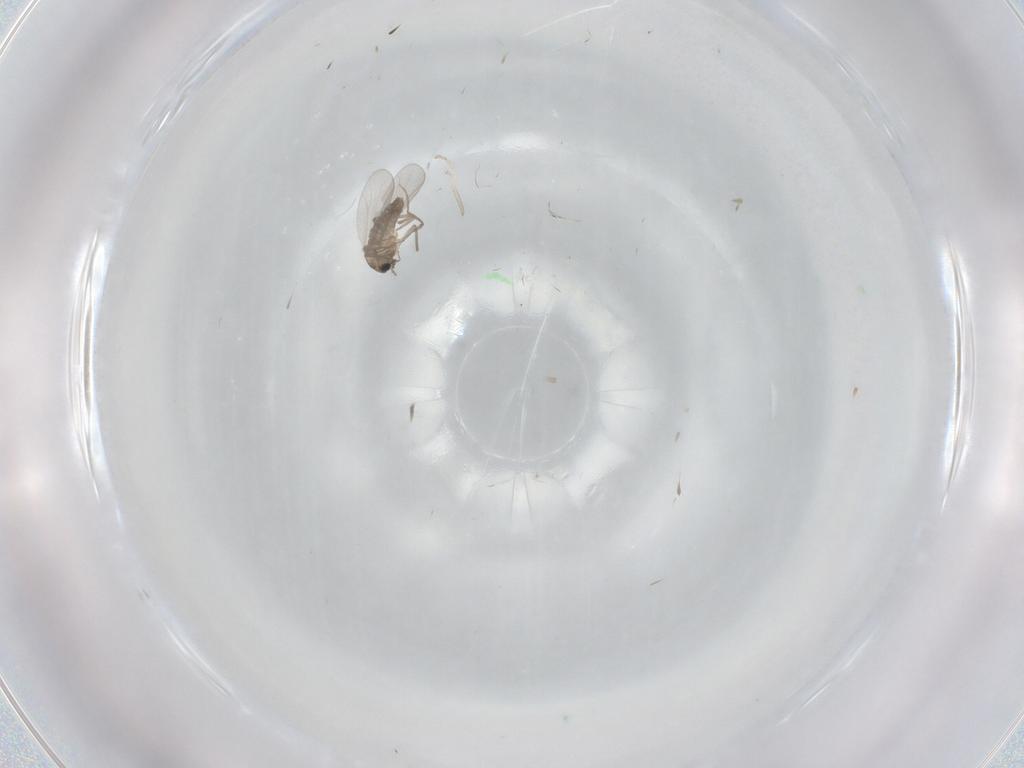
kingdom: Animalia
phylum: Arthropoda
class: Insecta
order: Diptera
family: Chironomidae
